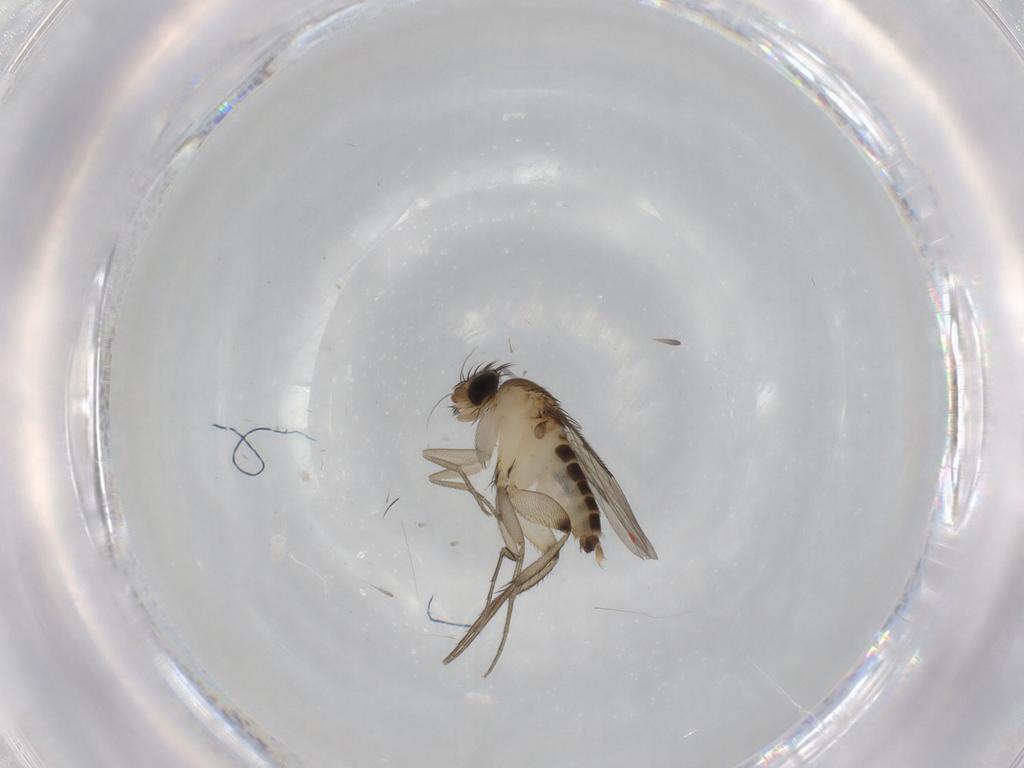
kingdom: Animalia
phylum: Arthropoda
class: Insecta
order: Diptera
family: Phoridae
